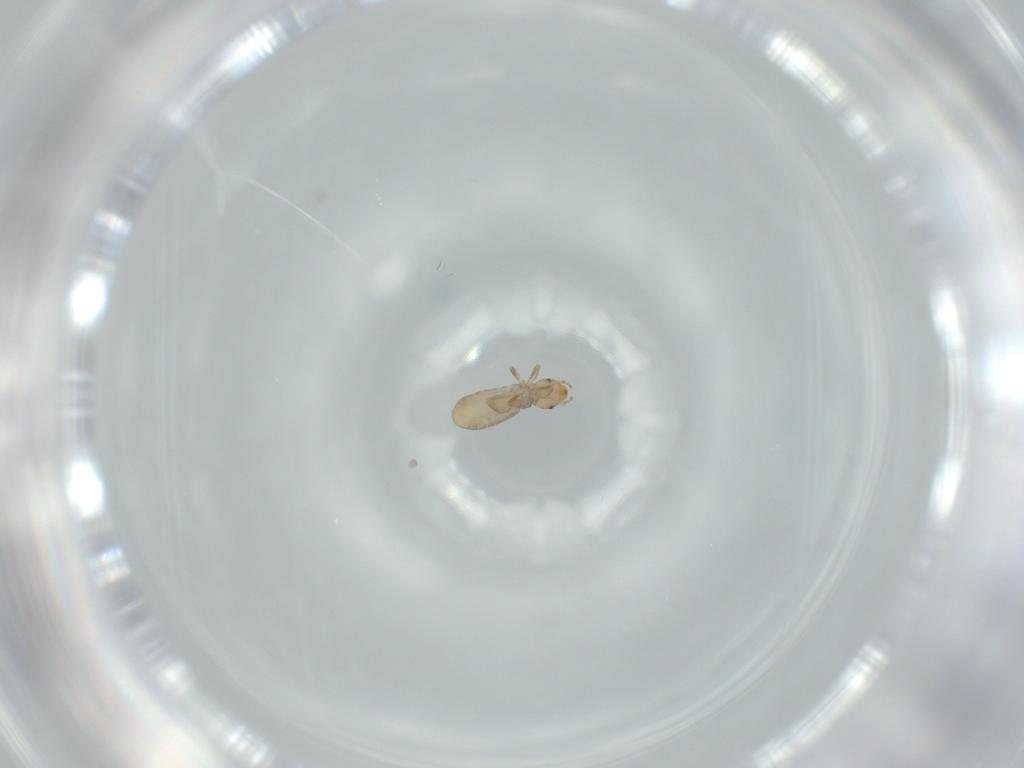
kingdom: Animalia
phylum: Arthropoda
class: Insecta
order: Psocodea
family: Liposcelididae
